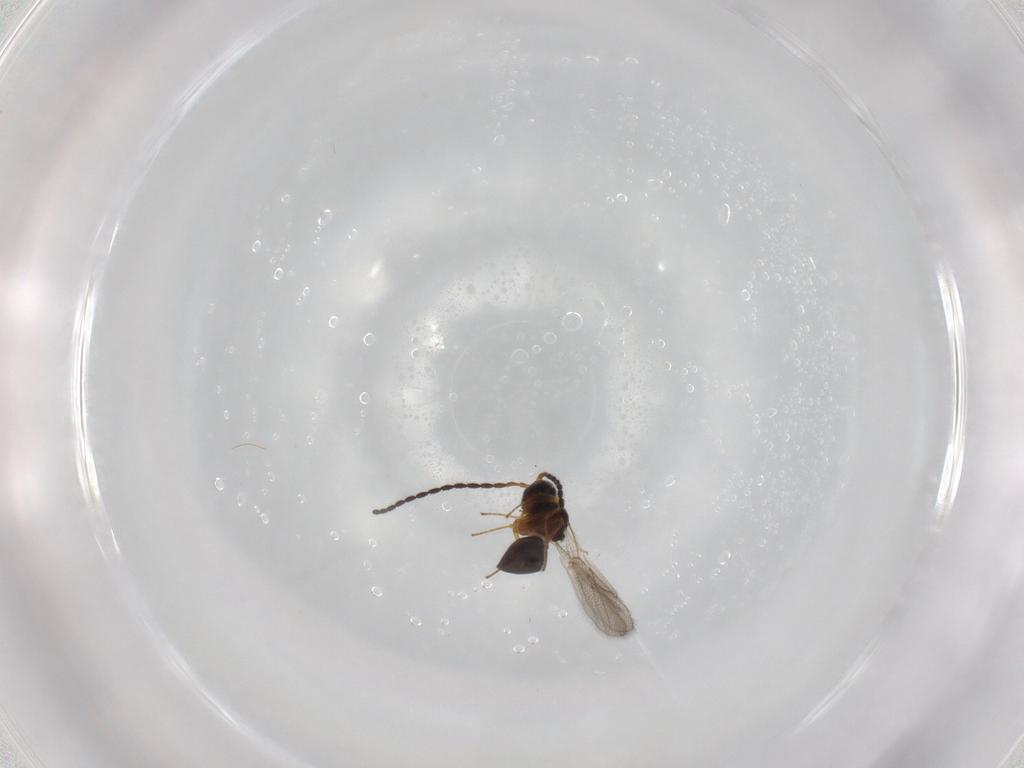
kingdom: Animalia
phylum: Arthropoda
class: Insecta
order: Hymenoptera
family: Figitidae
